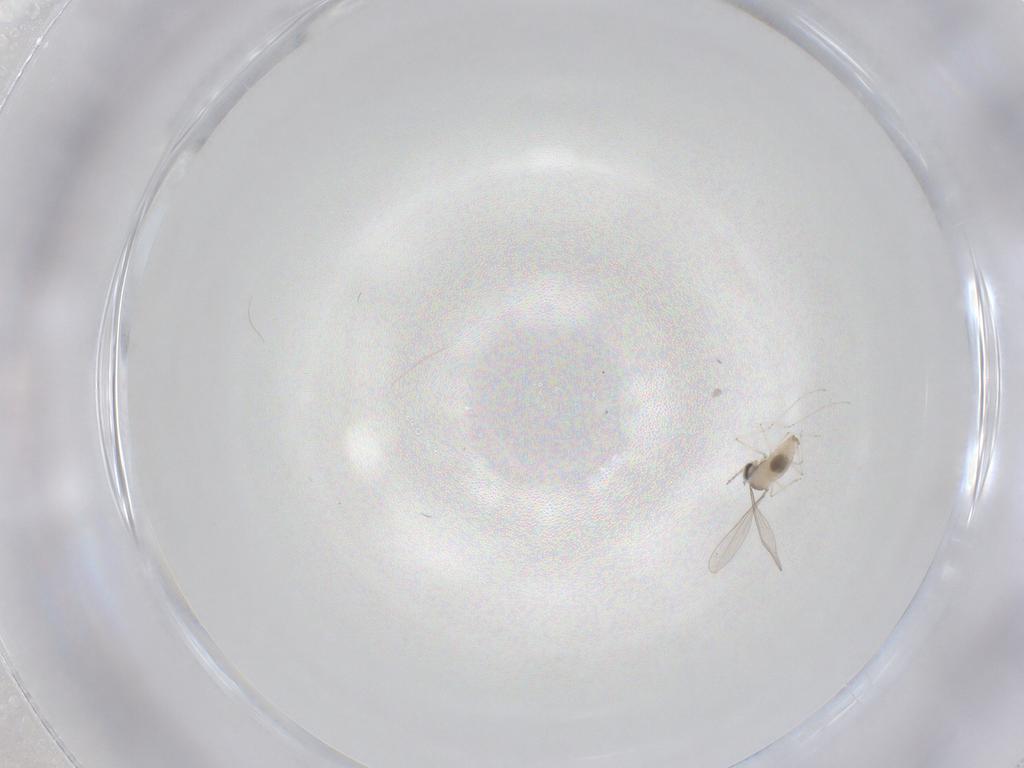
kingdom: Animalia
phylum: Arthropoda
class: Insecta
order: Diptera
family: Cecidomyiidae
